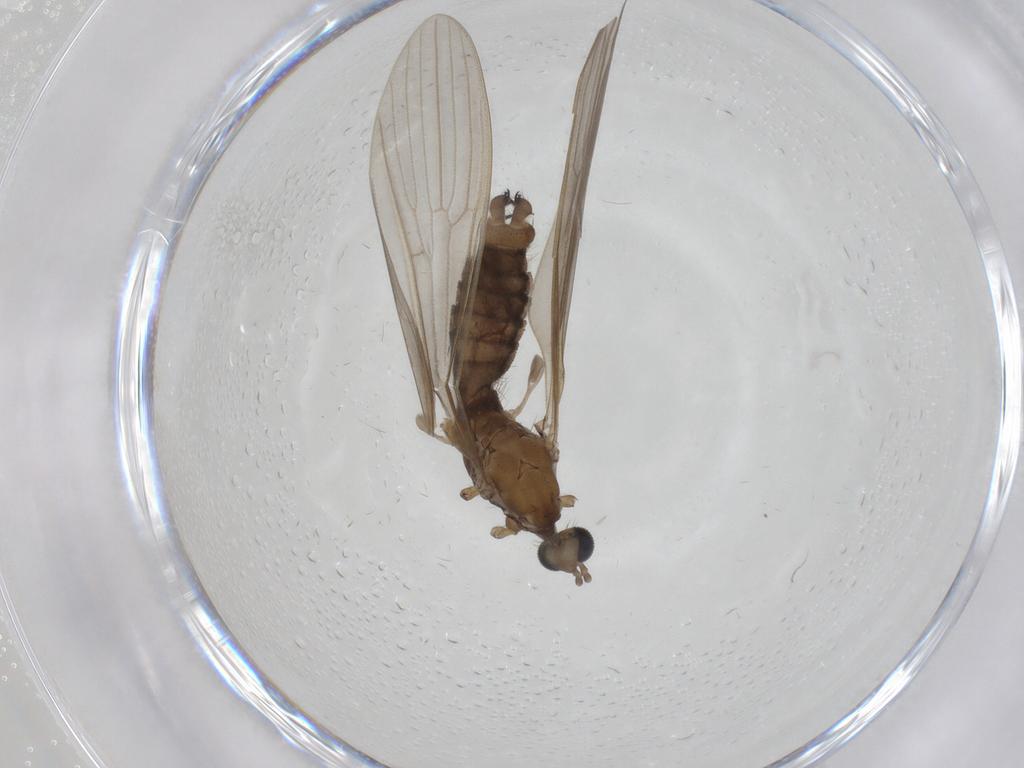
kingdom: Animalia
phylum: Arthropoda
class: Insecta
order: Diptera
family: Limoniidae
